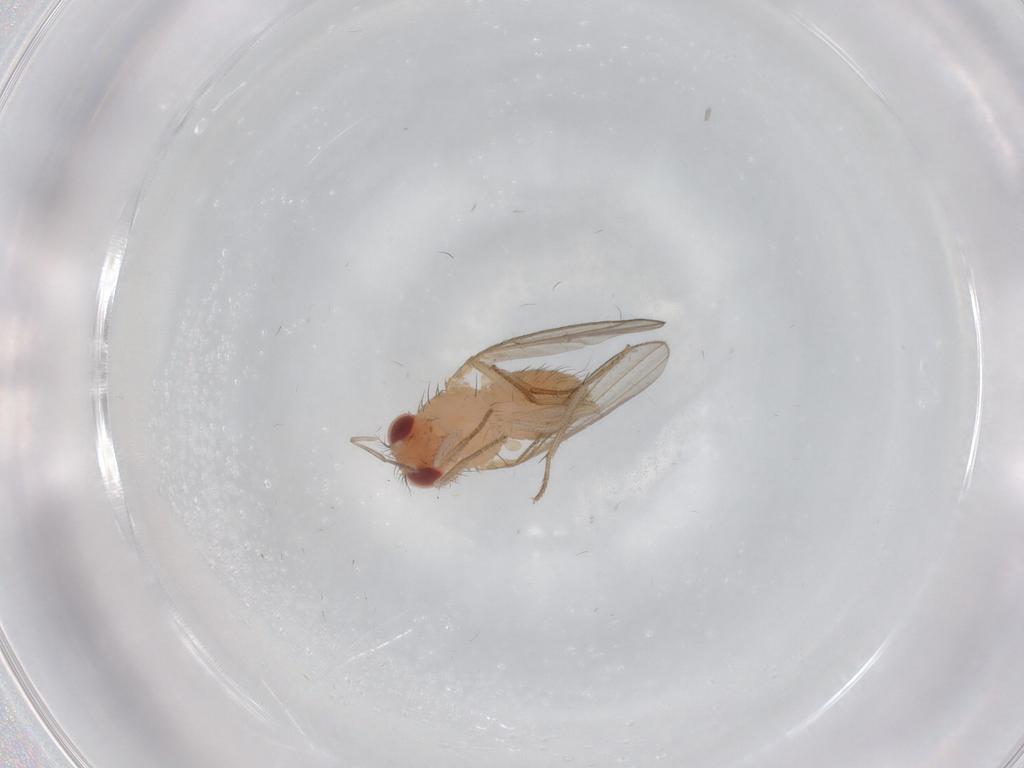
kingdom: Animalia
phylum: Arthropoda
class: Insecta
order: Diptera
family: Drosophilidae
